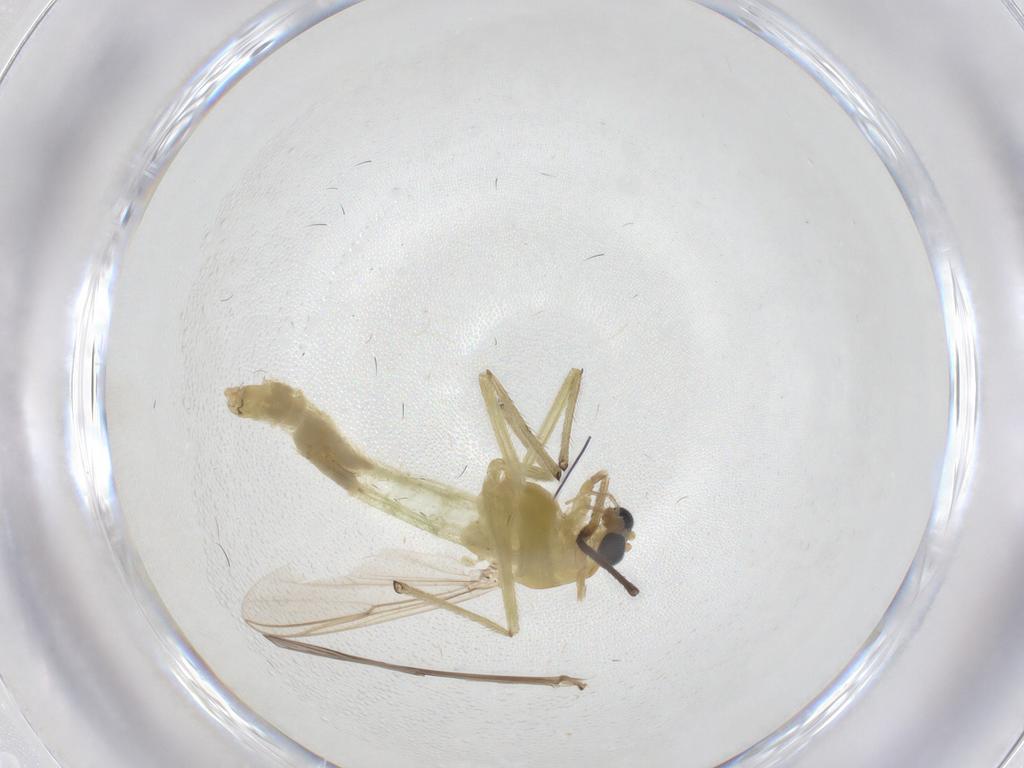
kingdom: Animalia
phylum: Arthropoda
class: Insecta
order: Diptera
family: Chironomidae
